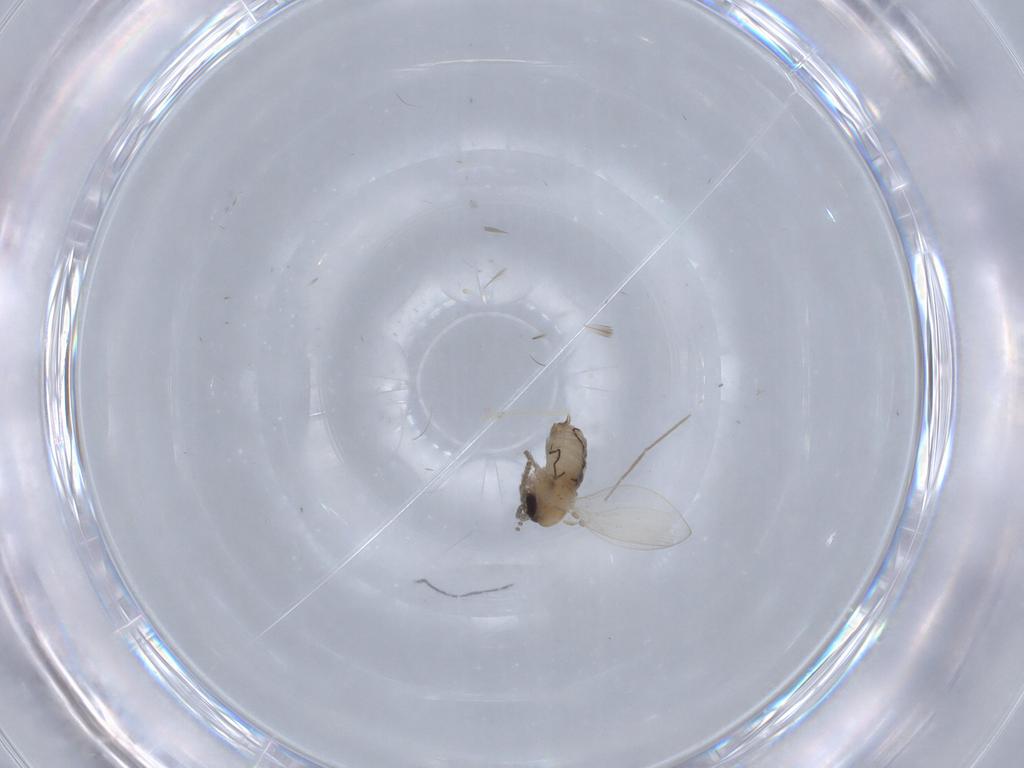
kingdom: Animalia
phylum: Arthropoda
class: Insecta
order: Diptera
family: Psychodidae
